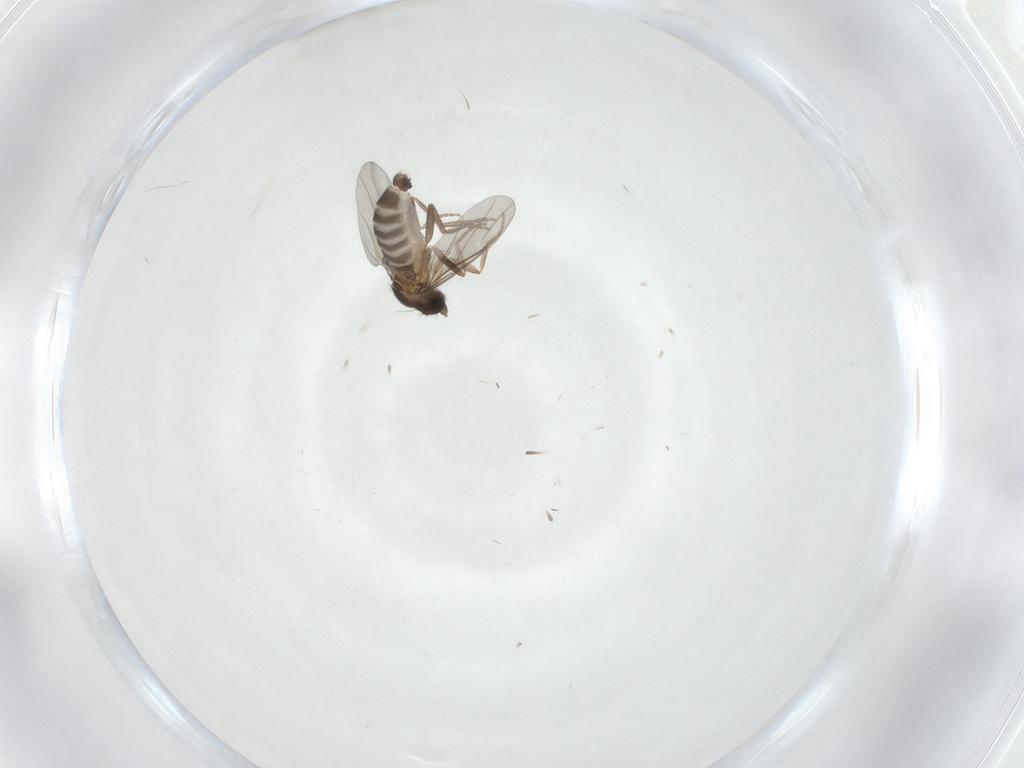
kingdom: Animalia
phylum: Arthropoda
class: Insecta
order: Diptera
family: Phoridae
